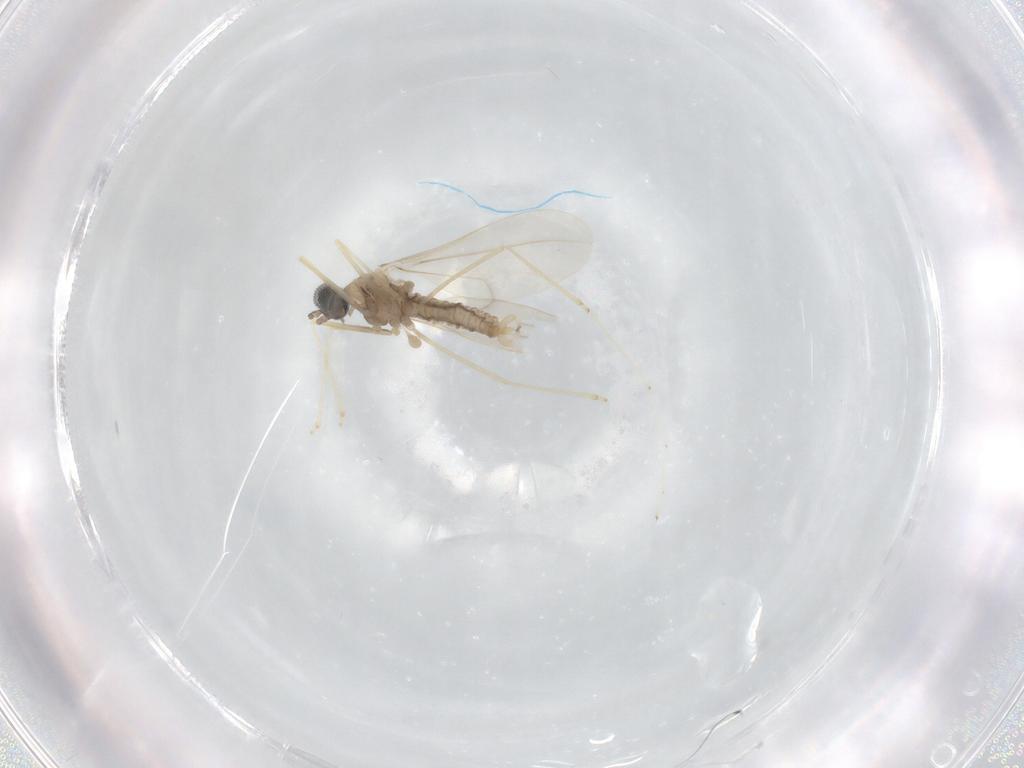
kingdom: Animalia
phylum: Arthropoda
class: Insecta
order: Diptera
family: Cecidomyiidae
